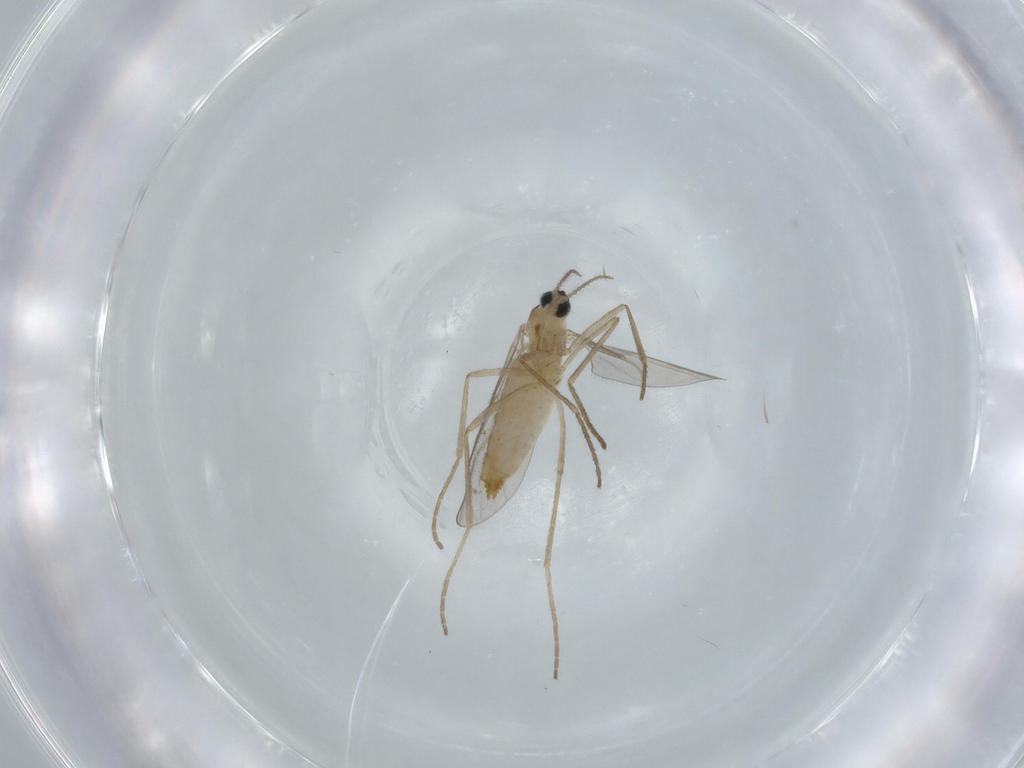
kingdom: Animalia
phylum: Arthropoda
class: Insecta
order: Diptera
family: Cecidomyiidae
